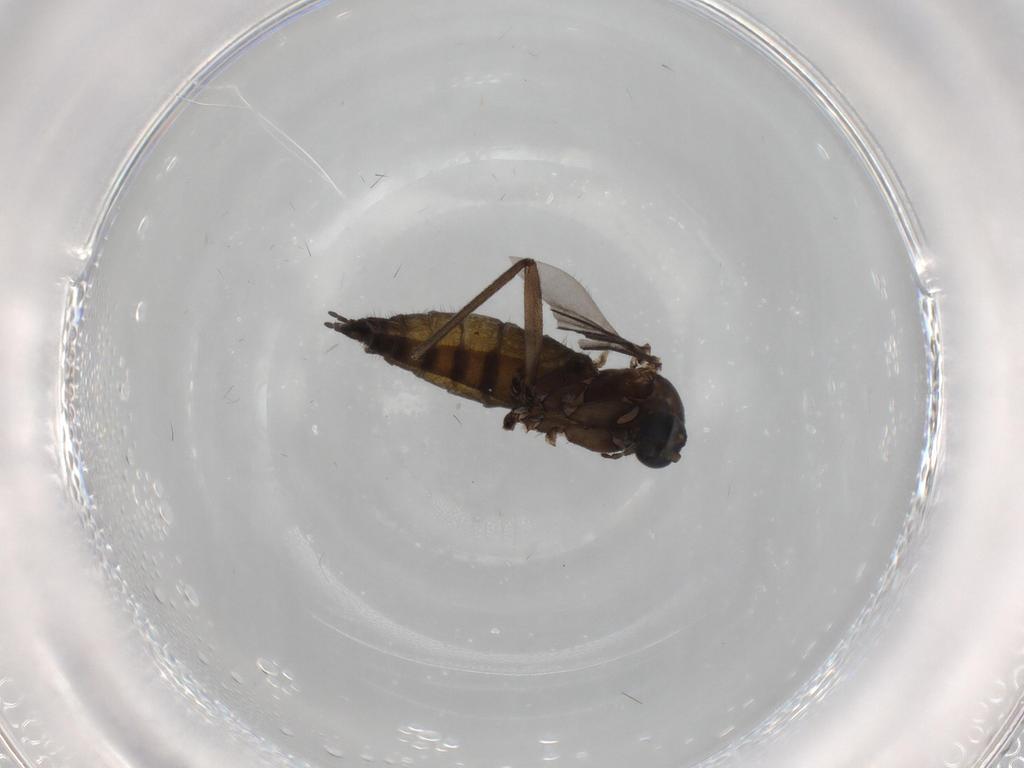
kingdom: Animalia
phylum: Arthropoda
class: Insecta
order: Diptera
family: Sciaridae
